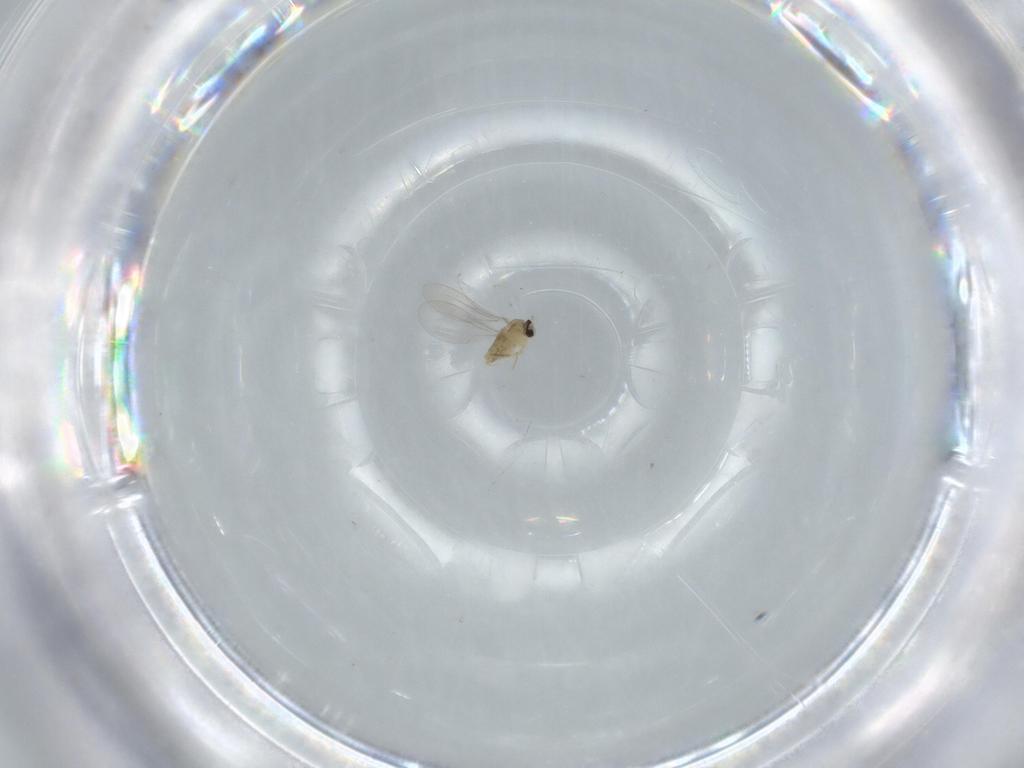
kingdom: Animalia
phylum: Arthropoda
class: Insecta
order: Diptera
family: Cecidomyiidae
